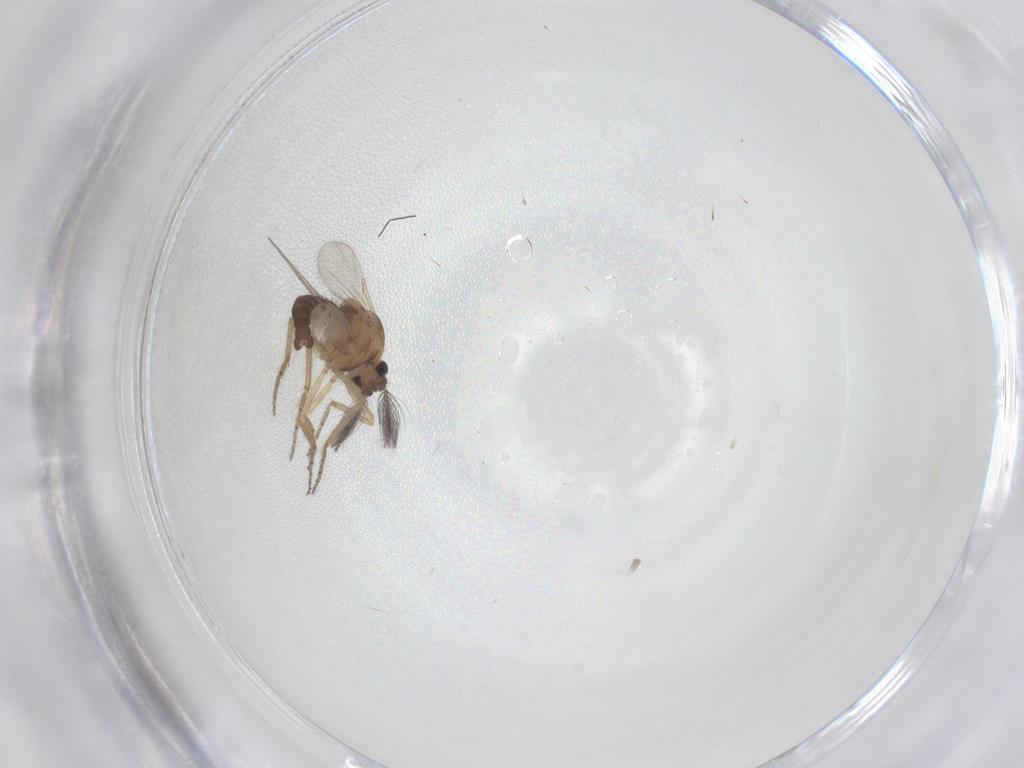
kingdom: Animalia
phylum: Arthropoda
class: Insecta
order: Diptera
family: Ceratopogonidae
